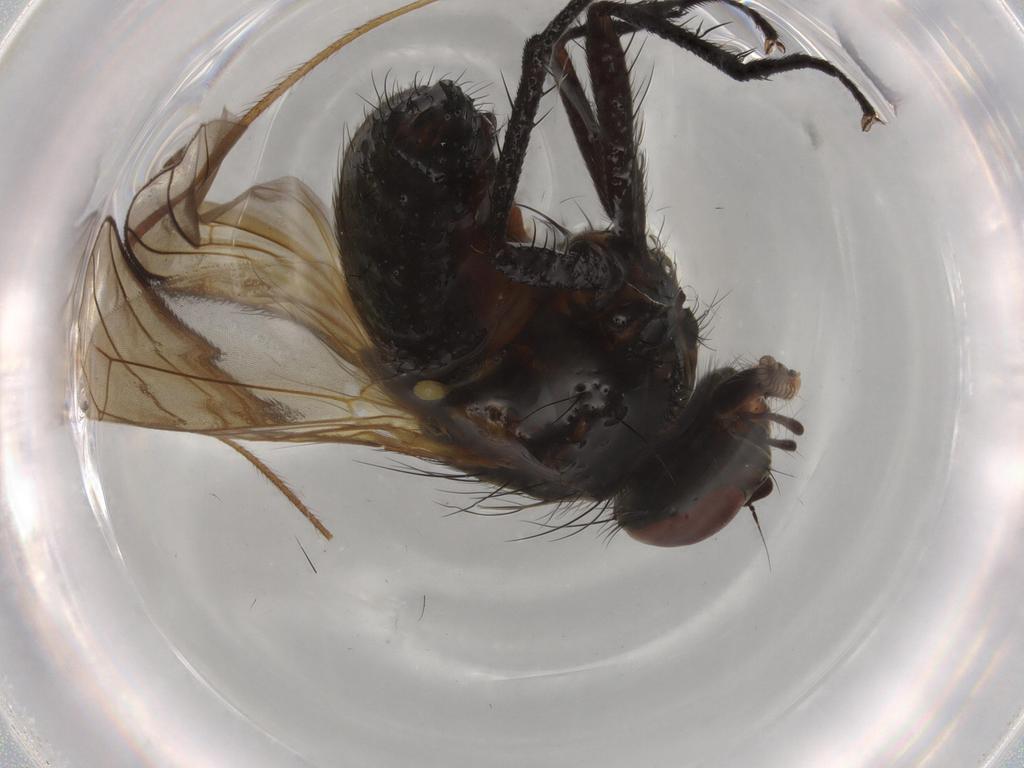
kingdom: Animalia
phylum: Arthropoda
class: Insecta
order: Diptera
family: Anthomyiidae
